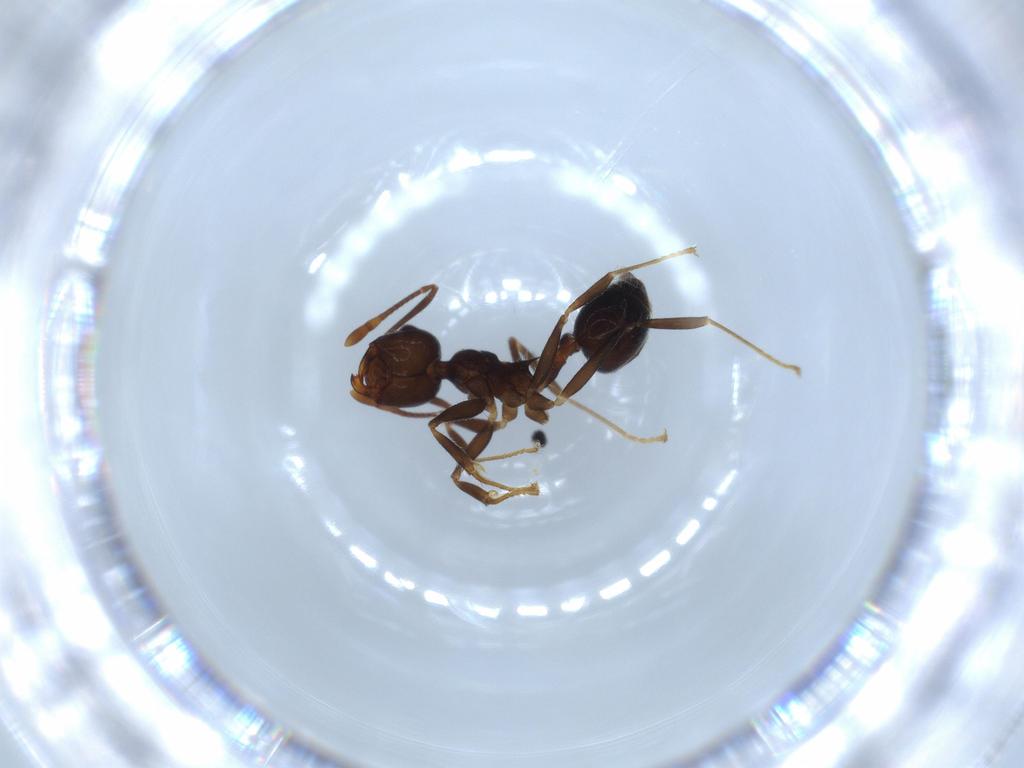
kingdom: Animalia
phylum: Arthropoda
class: Insecta
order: Hymenoptera
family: Formicidae
